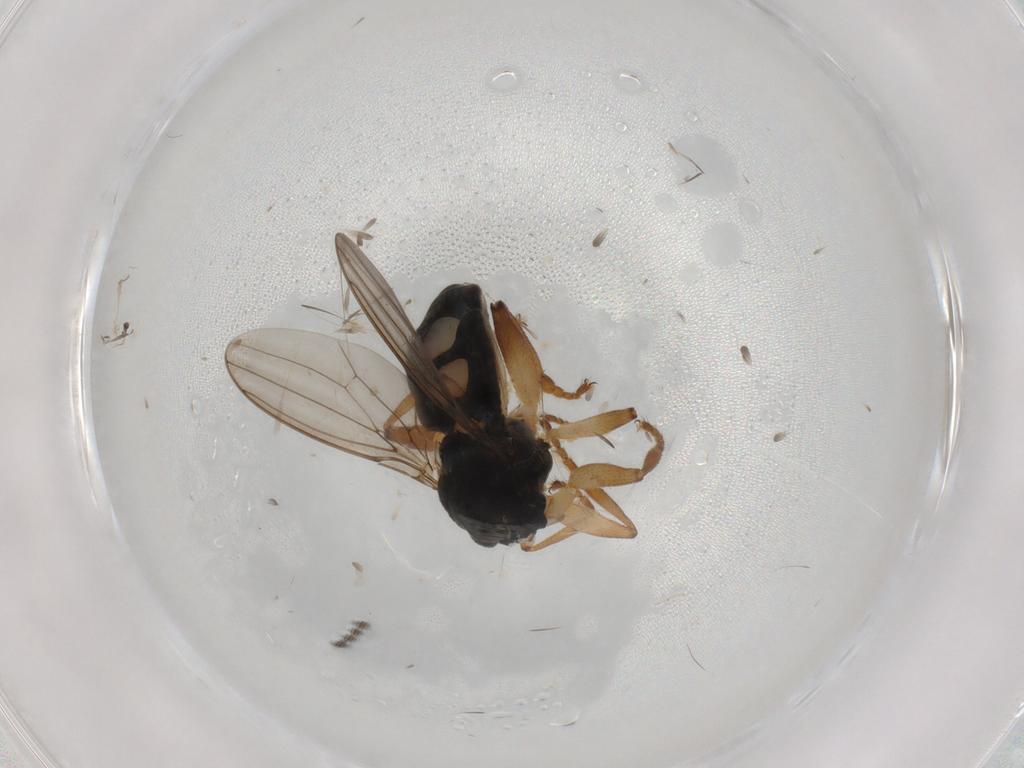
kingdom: Animalia
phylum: Arthropoda
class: Insecta
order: Diptera
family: Sphaeroceridae
